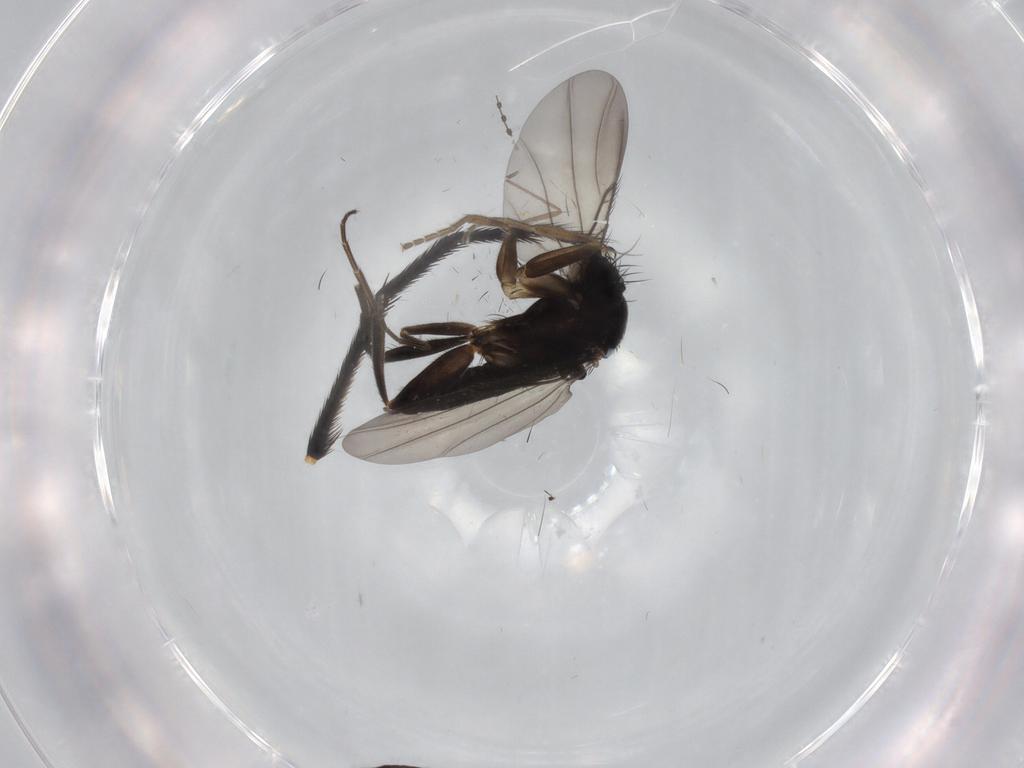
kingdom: Animalia
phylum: Arthropoda
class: Insecta
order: Diptera
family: Phoridae
